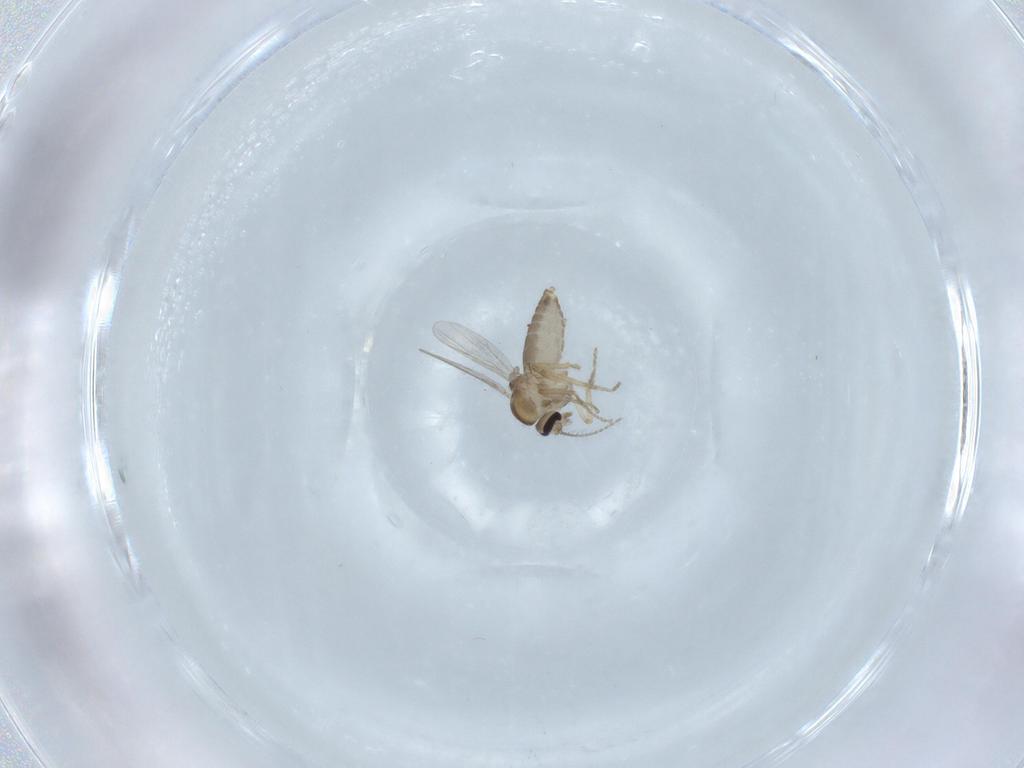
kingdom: Animalia
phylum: Arthropoda
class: Insecta
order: Diptera
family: Ceratopogonidae
